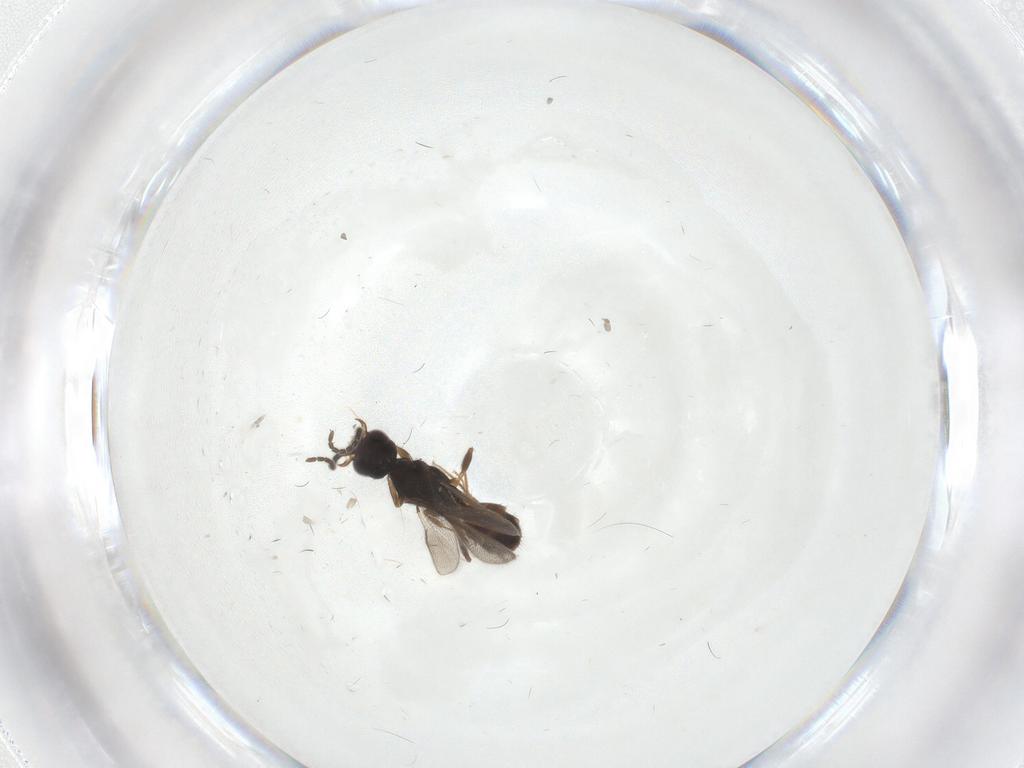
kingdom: Animalia
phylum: Arthropoda
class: Insecta
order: Hymenoptera
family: Bethylidae
